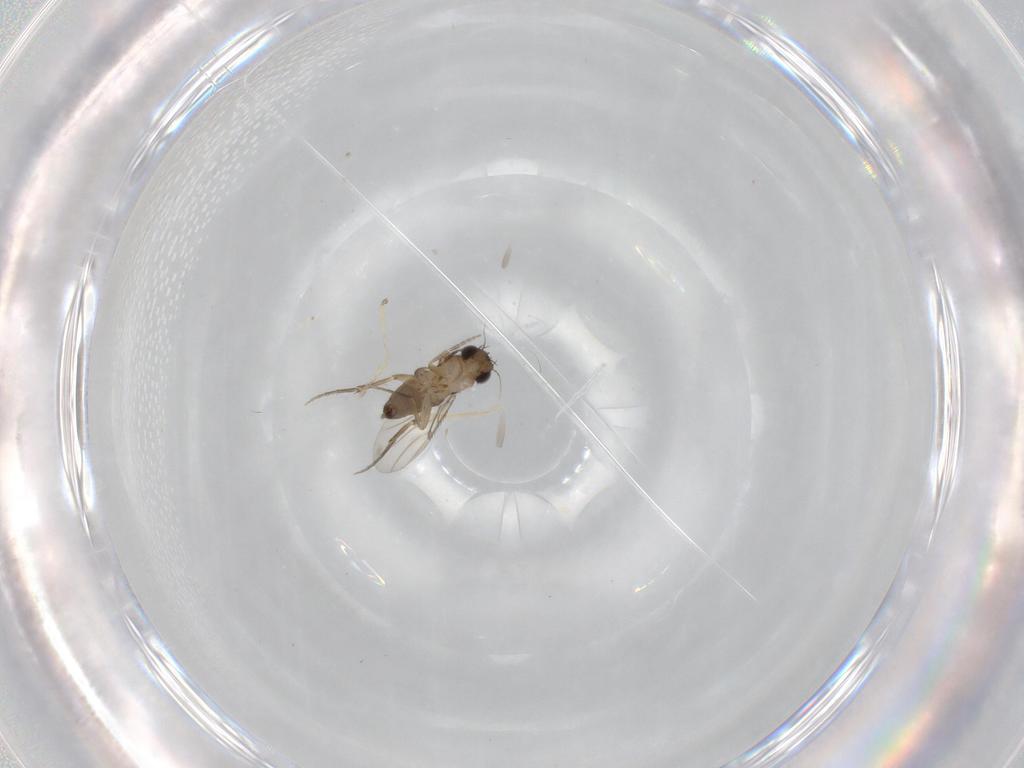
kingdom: Animalia
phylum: Arthropoda
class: Insecta
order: Diptera
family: Phoridae
